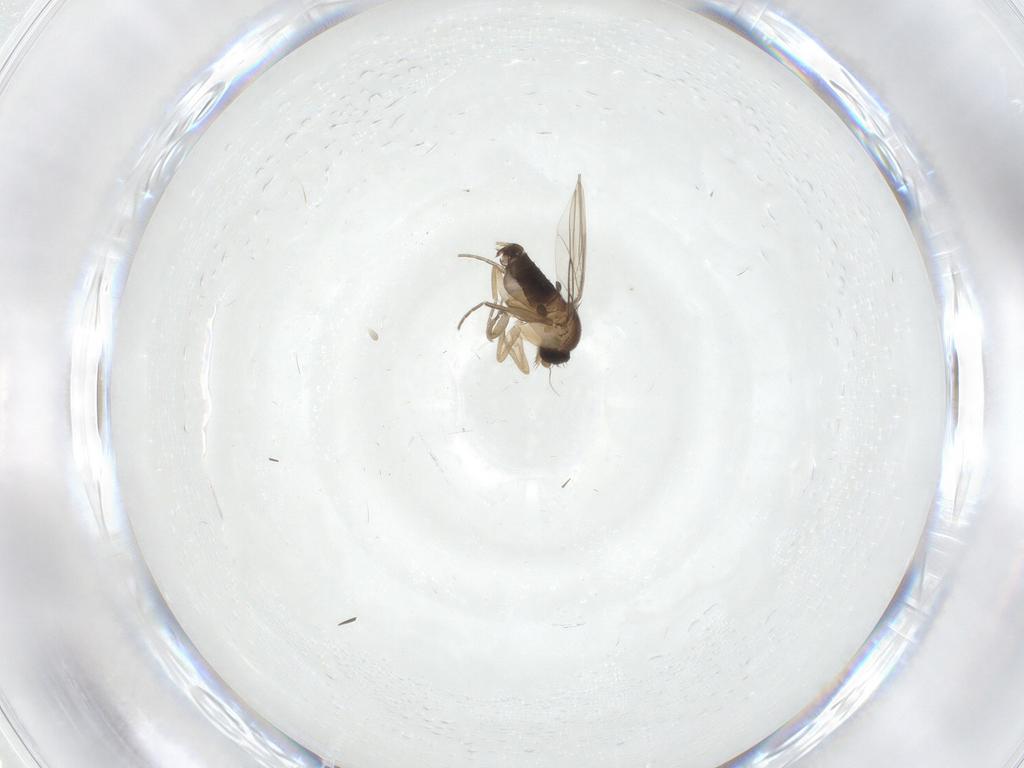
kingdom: Animalia
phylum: Arthropoda
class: Insecta
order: Diptera
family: Phoridae
